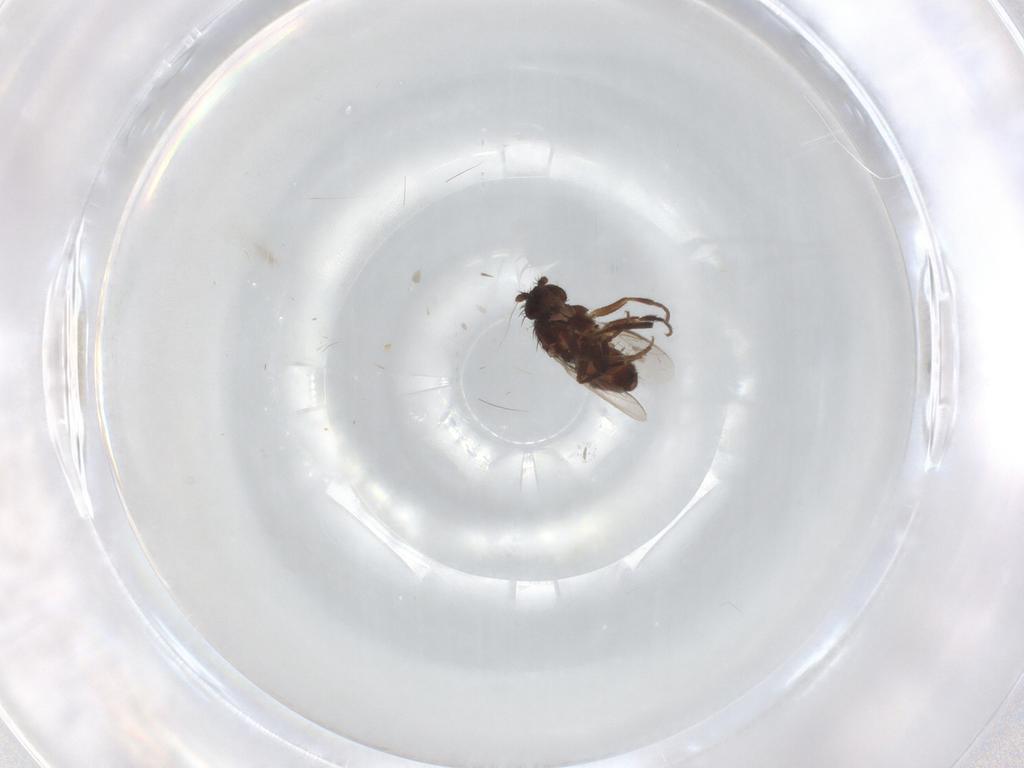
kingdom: Animalia
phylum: Arthropoda
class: Insecta
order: Diptera
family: Sphaeroceridae
